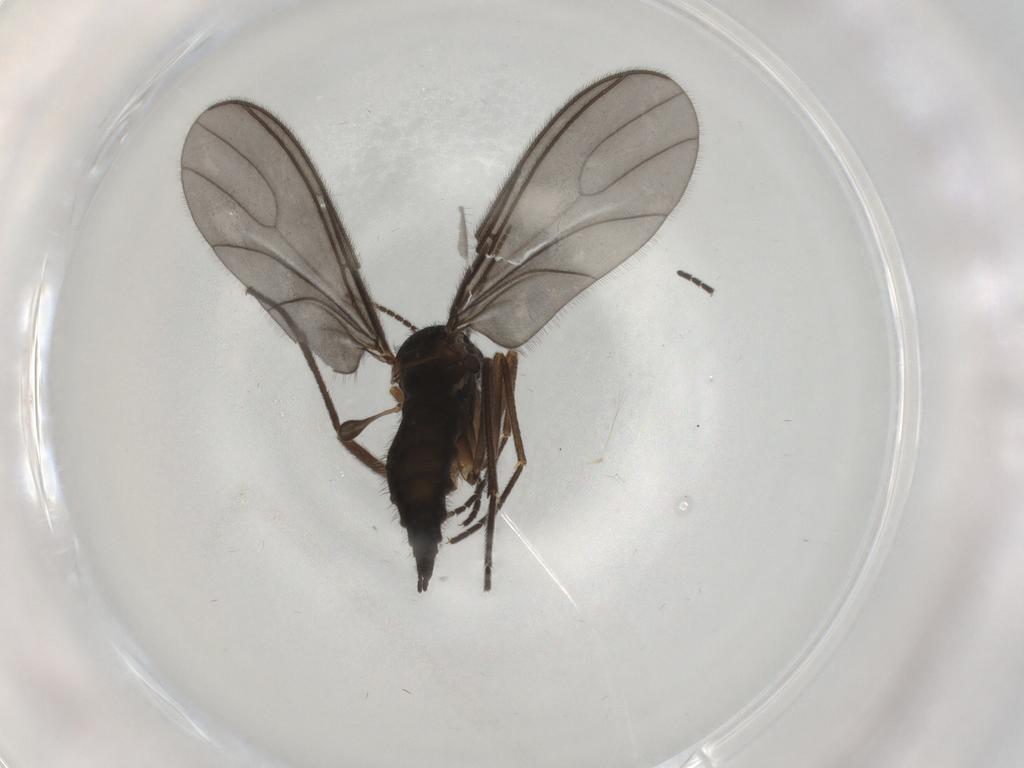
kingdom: Animalia
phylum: Arthropoda
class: Insecta
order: Diptera
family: Sciaridae
